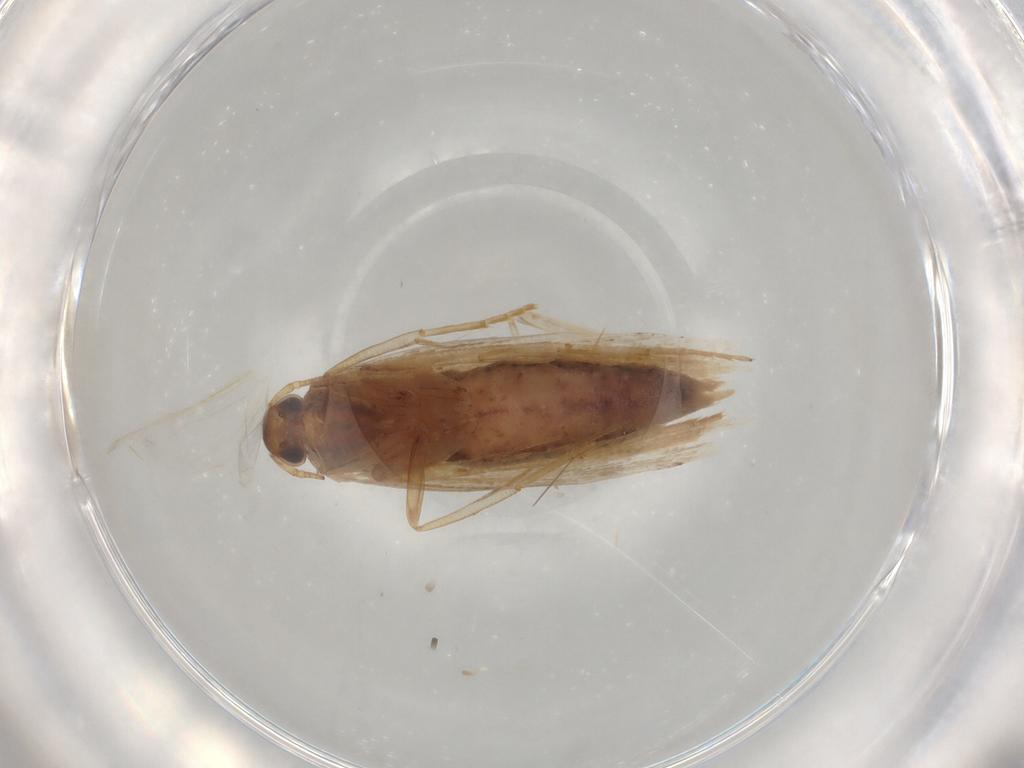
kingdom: Animalia
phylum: Arthropoda
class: Insecta
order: Lepidoptera
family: Gelechiidae
